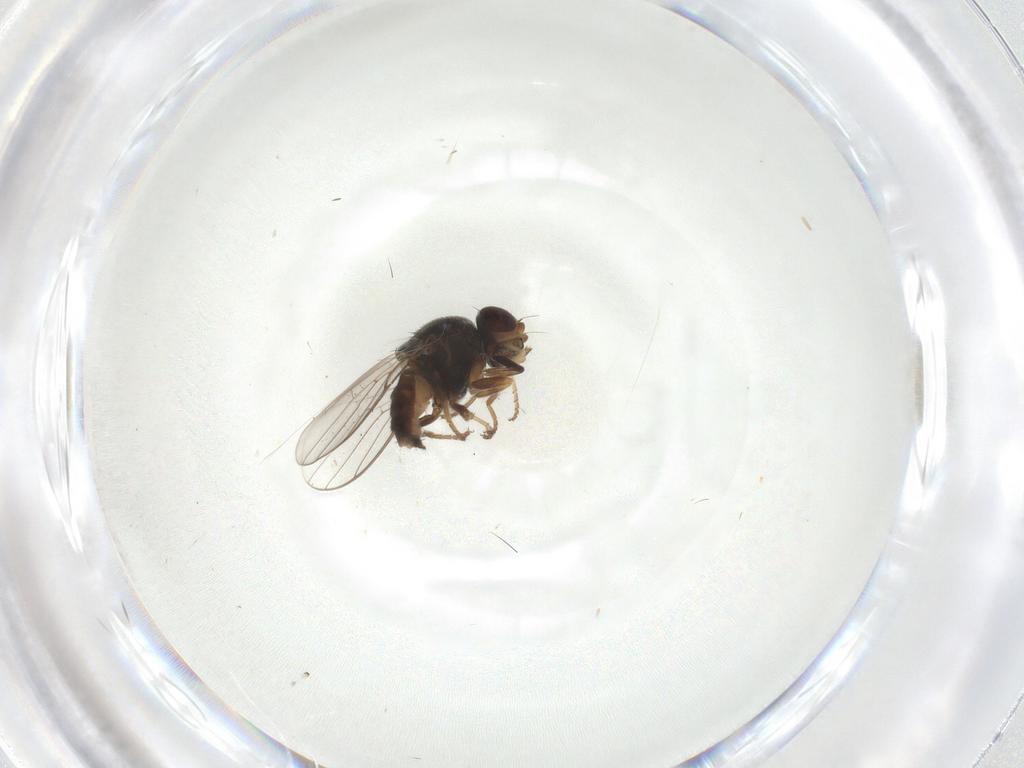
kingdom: Animalia
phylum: Arthropoda
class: Insecta
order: Diptera
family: Chloropidae
